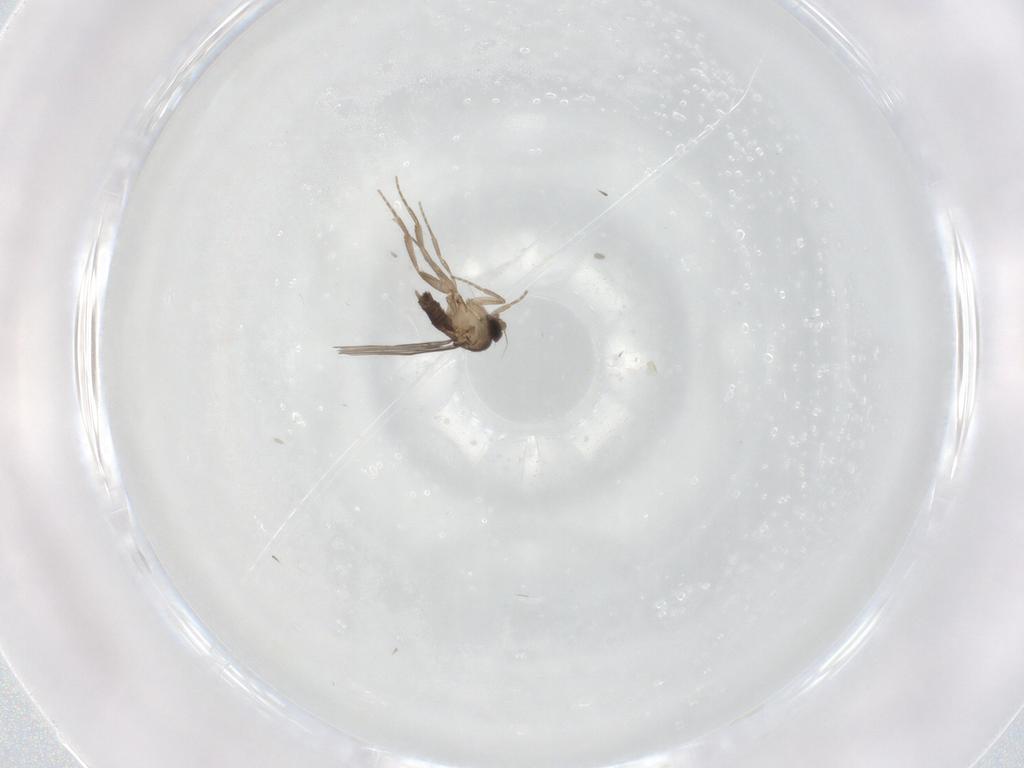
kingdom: Animalia
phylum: Arthropoda
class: Insecta
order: Diptera
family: Phoridae
